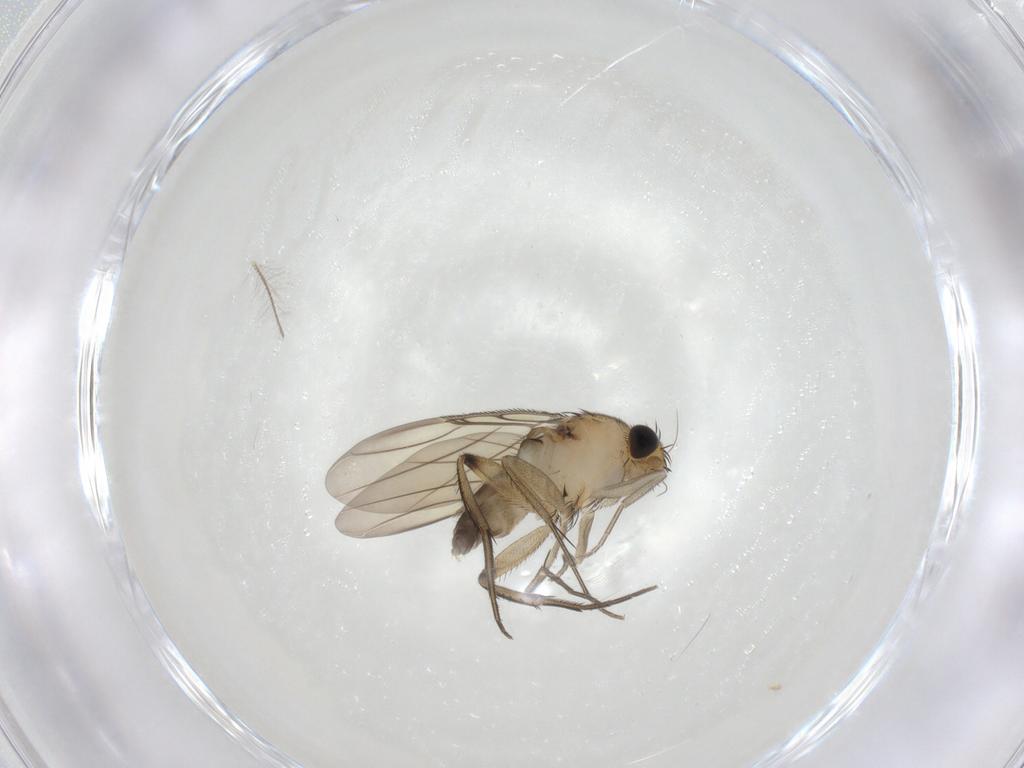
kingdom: Animalia
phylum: Arthropoda
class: Insecta
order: Diptera
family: Phoridae
